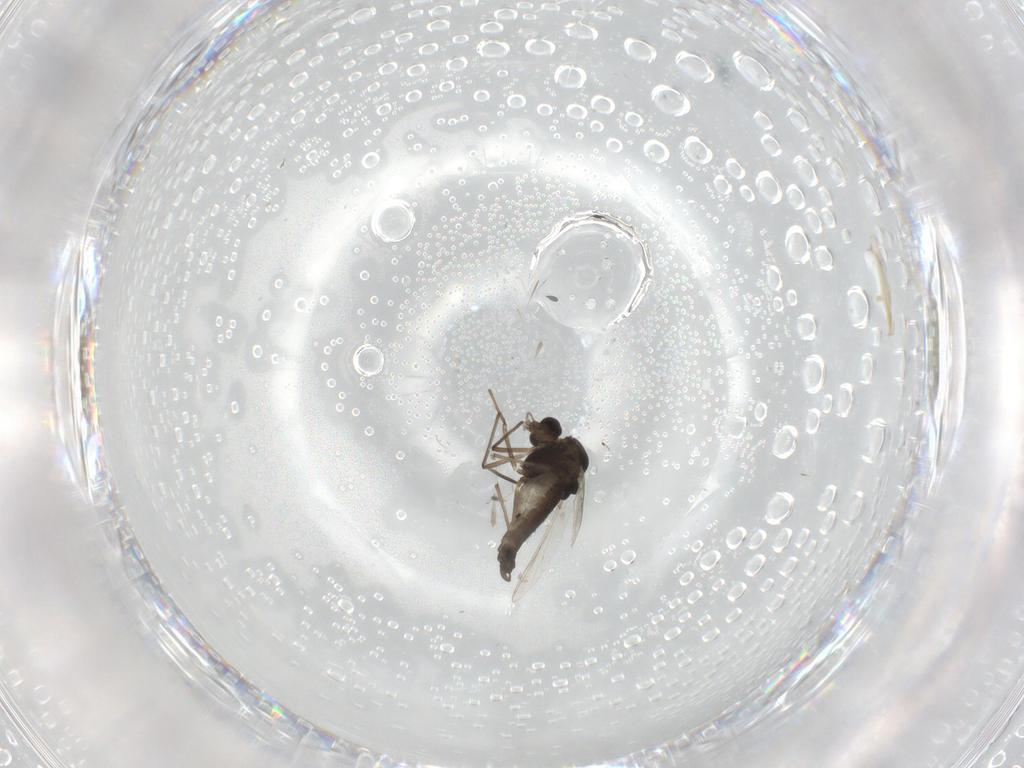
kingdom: Animalia
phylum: Arthropoda
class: Insecta
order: Diptera
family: Chironomidae
